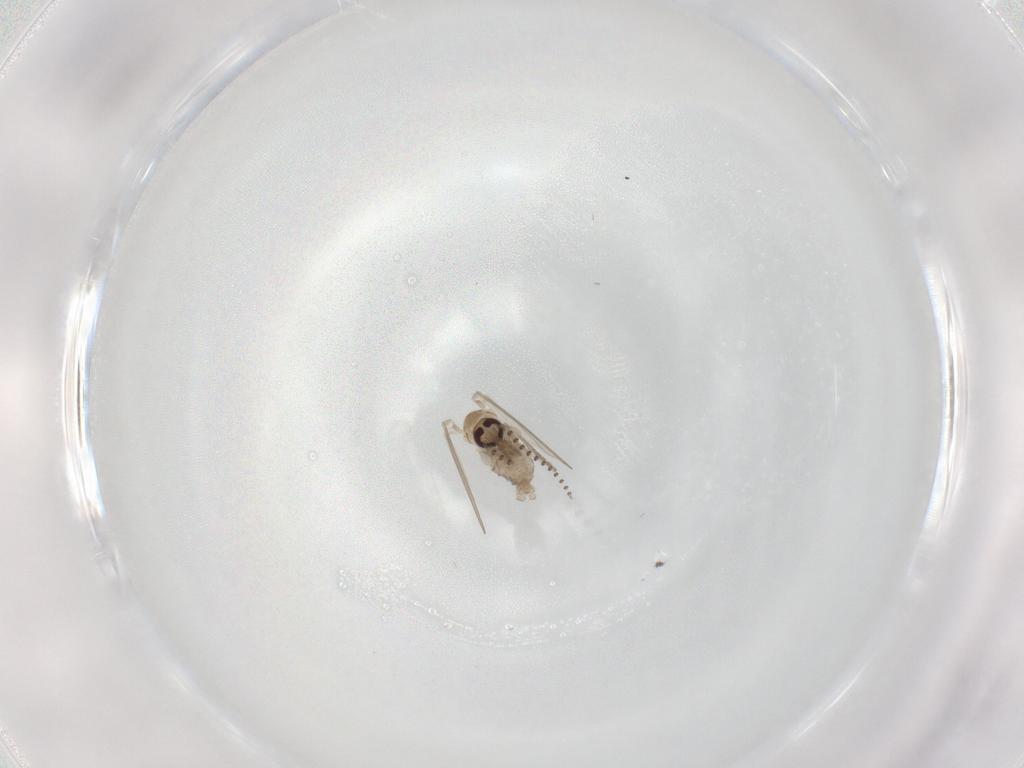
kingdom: Animalia
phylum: Arthropoda
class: Insecta
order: Diptera
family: Psychodidae
